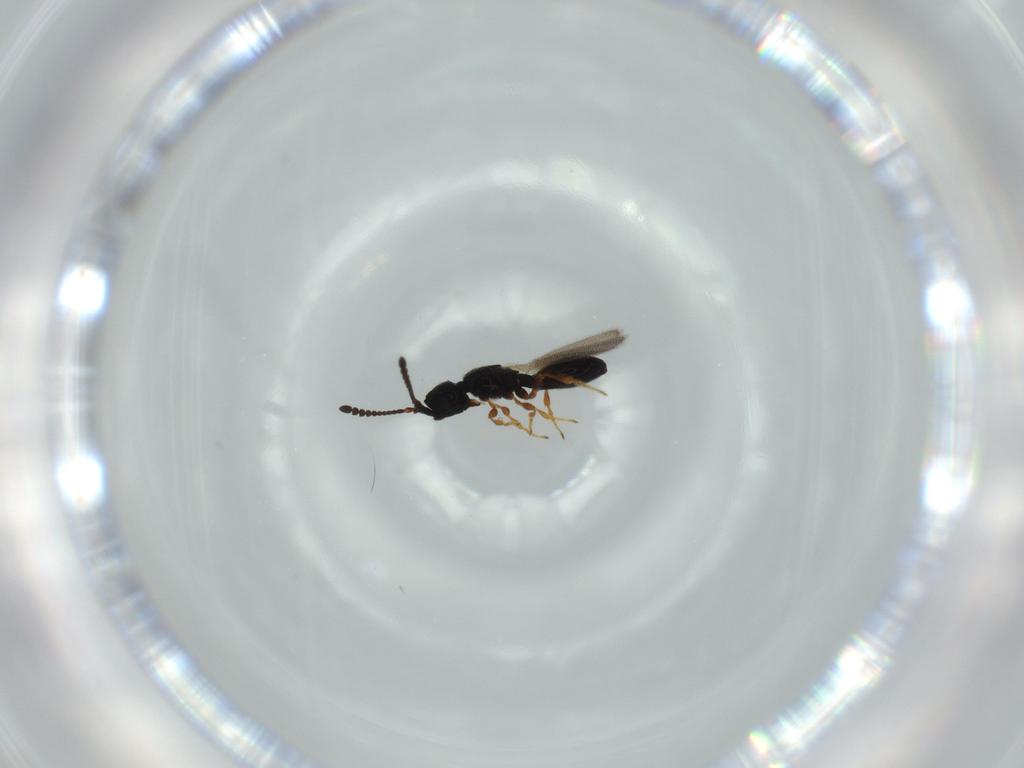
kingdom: Animalia
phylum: Arthropoda
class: Insecta
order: Hymenoptera
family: Diapriidae
